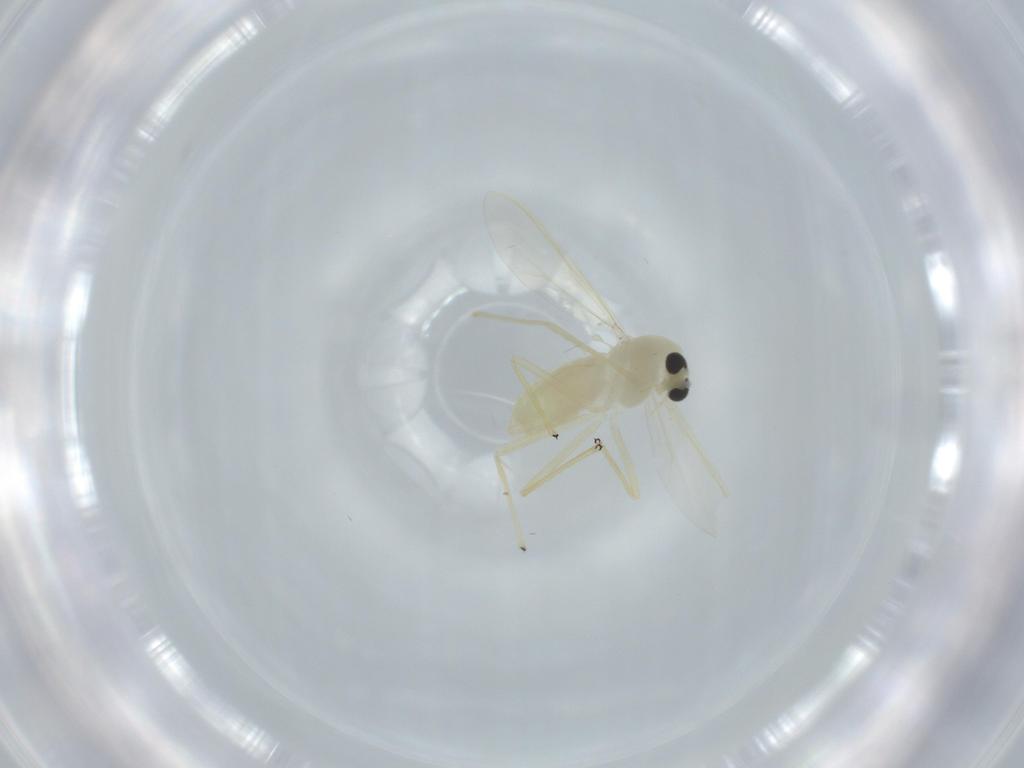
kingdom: Animalia
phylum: Arthropoda
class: Insecta
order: Diptera
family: Chironomidae
